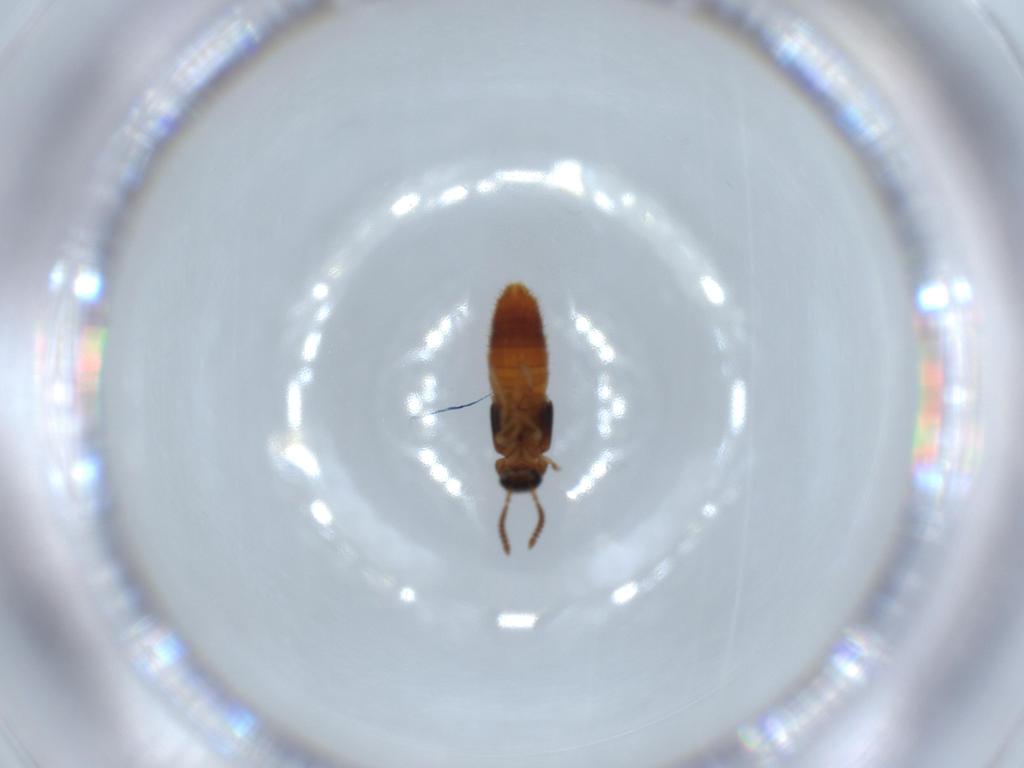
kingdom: Animalia
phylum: Arthropoda
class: Insecta
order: Coleoptera
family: Staphylinidae
